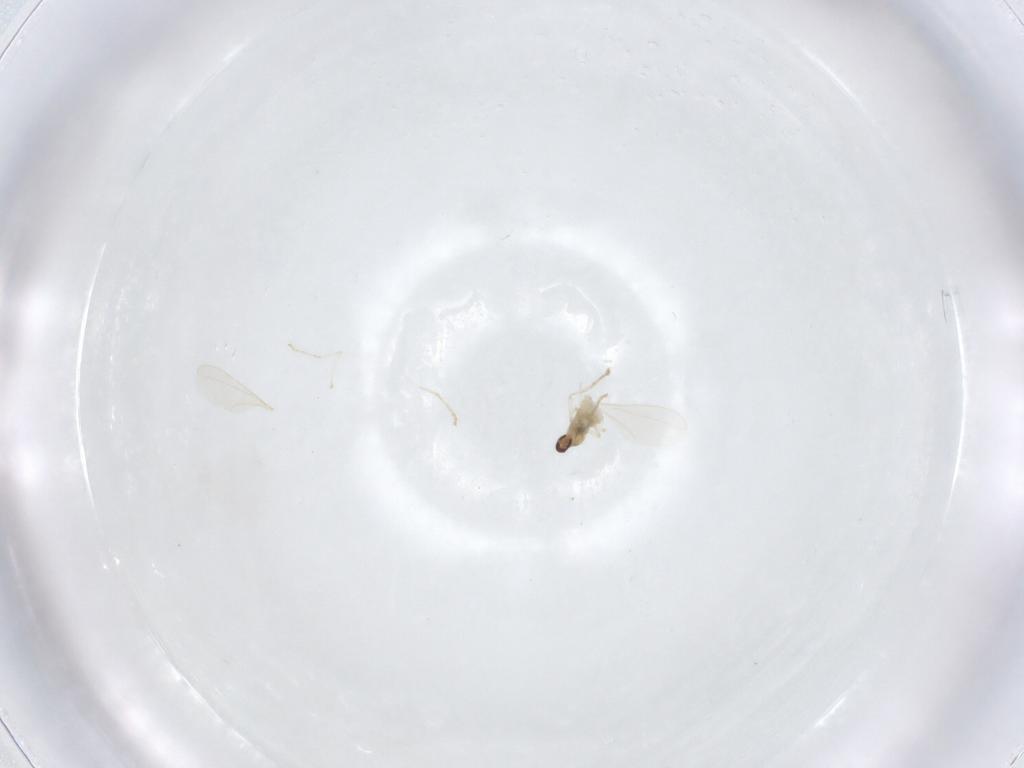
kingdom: Animalia
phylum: Arthropoda
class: Insecta
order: Diptera
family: Cecidomyiidae
